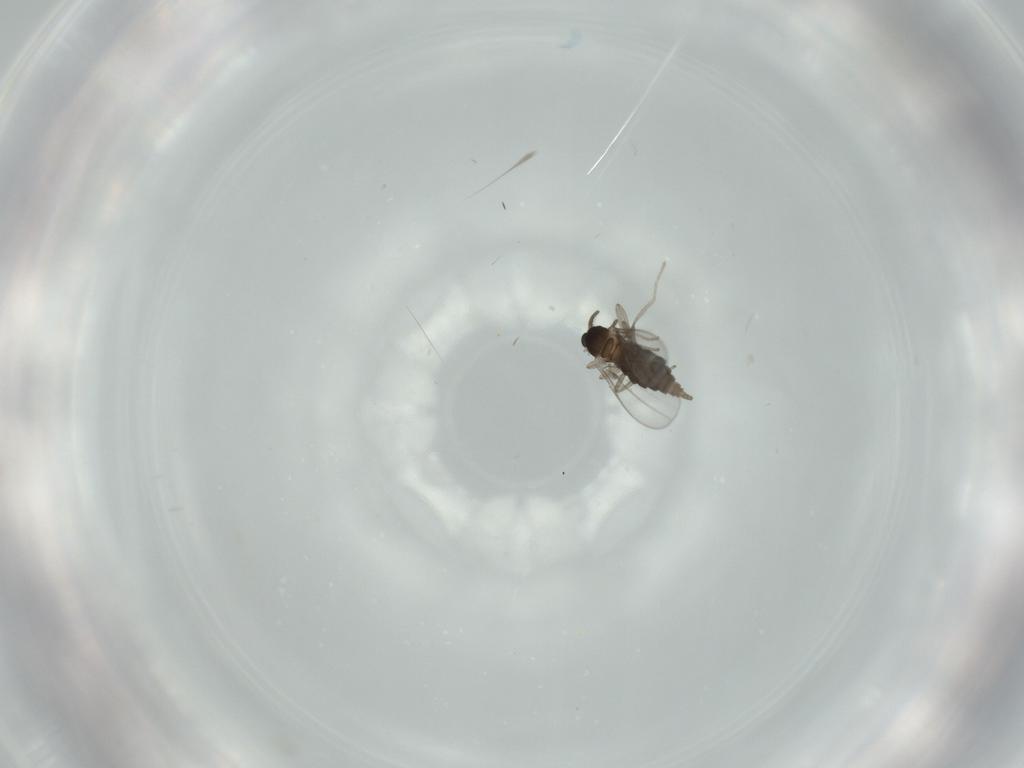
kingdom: Animalia
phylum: Arthropoda
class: Insecta
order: Diptera
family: Cecidomyiidae
